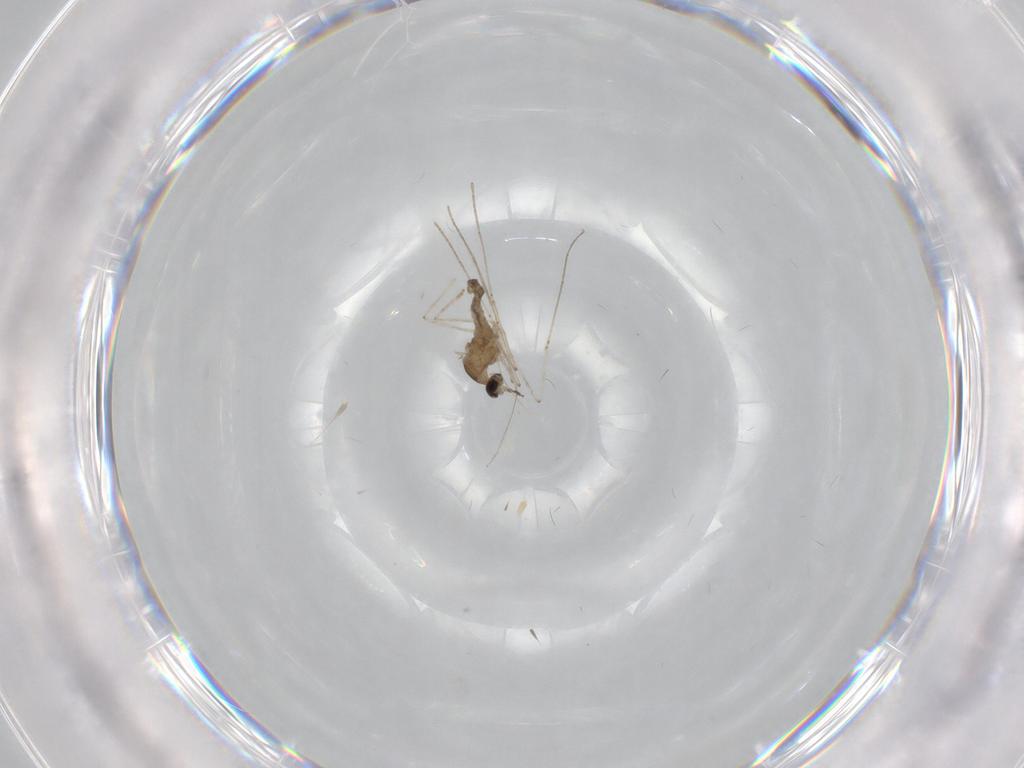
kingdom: Animalia
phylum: Arthropoda
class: Insecta
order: Diptera
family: Cecidomyiidae
